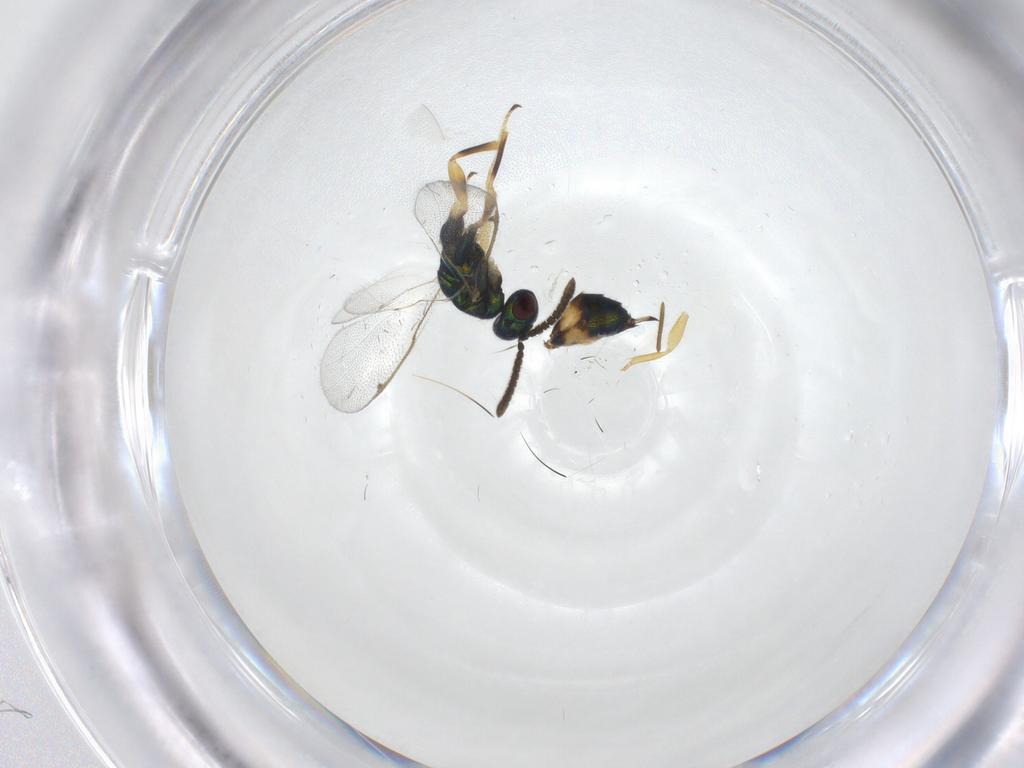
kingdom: Animalia
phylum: Arthropoda
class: Insecta
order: Hymenoptera
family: Torymidae
